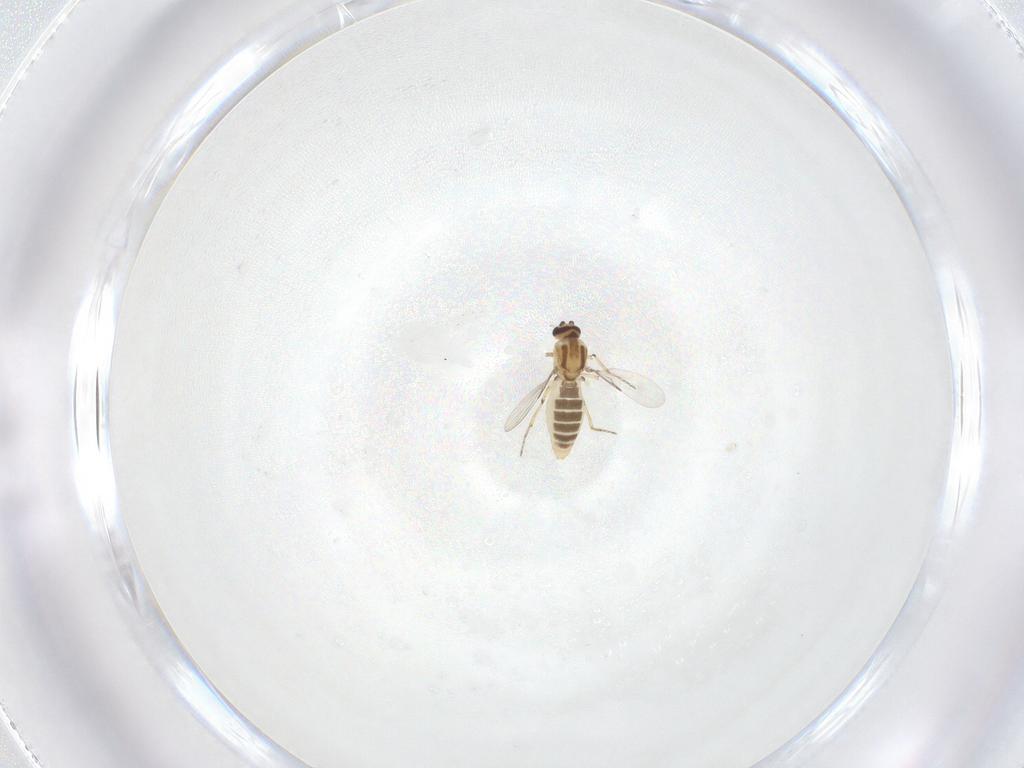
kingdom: Animalia
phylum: Arthropoda
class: Insecta
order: Diptera
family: Ceratopogonidae
